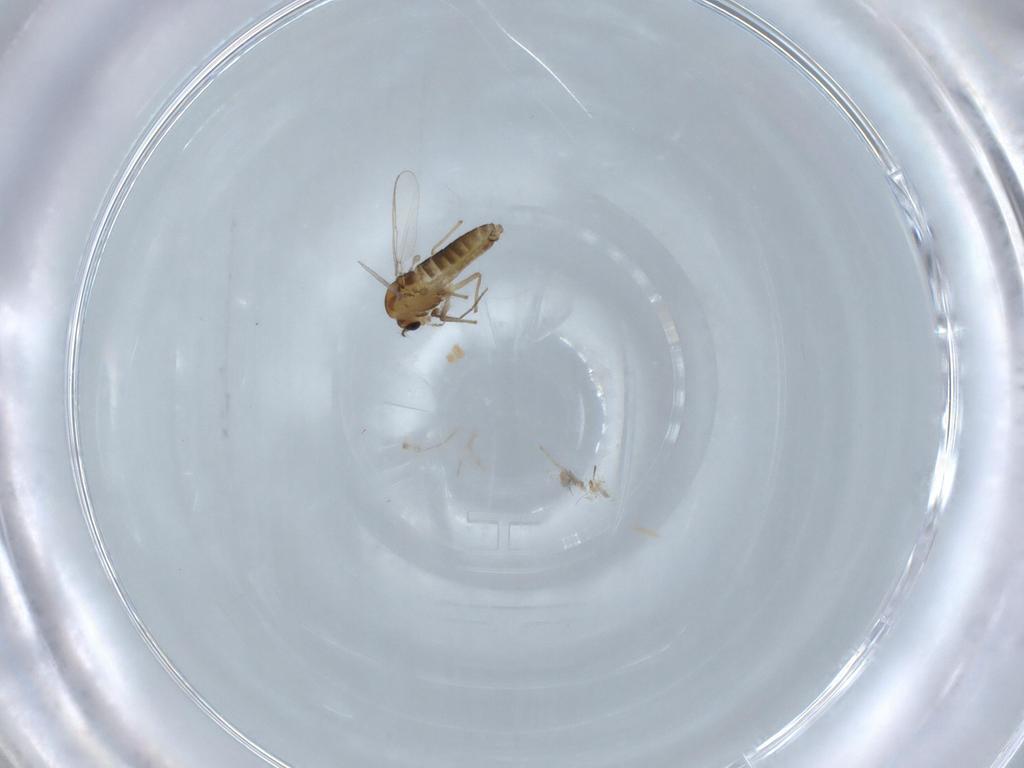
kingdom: Animalia
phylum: Arthropoda
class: Insecta
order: Diptera
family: Chironomidae
